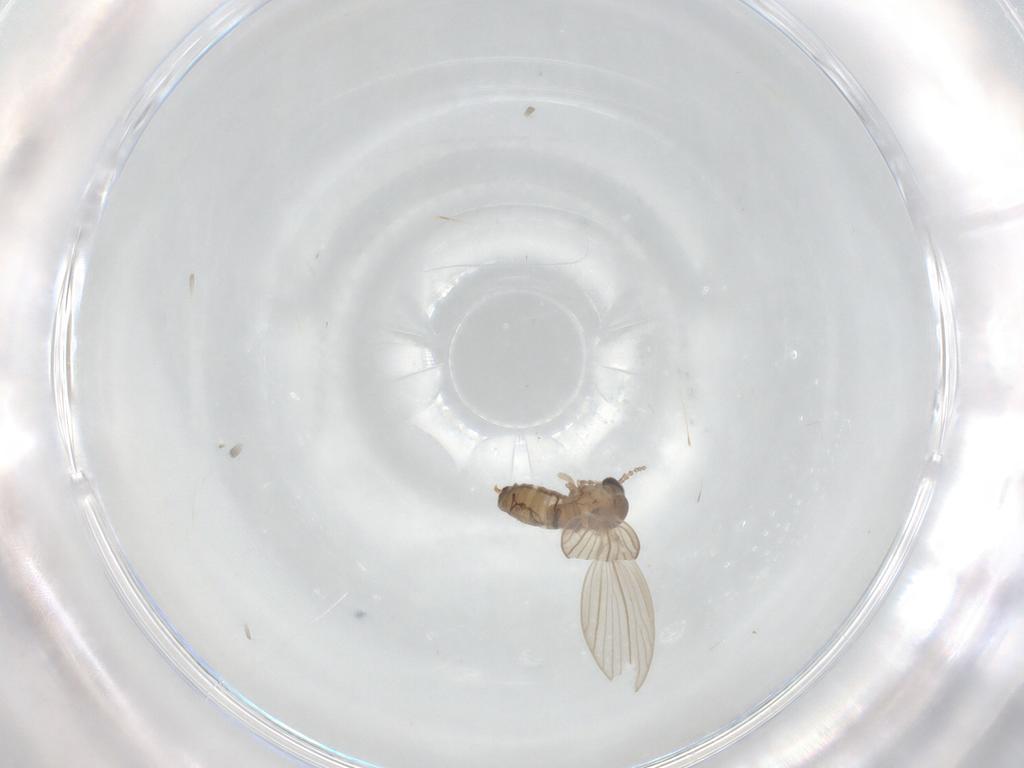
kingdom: Animalia
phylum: Arthropoda
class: Insecta
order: Diptera
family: Psychodidae
